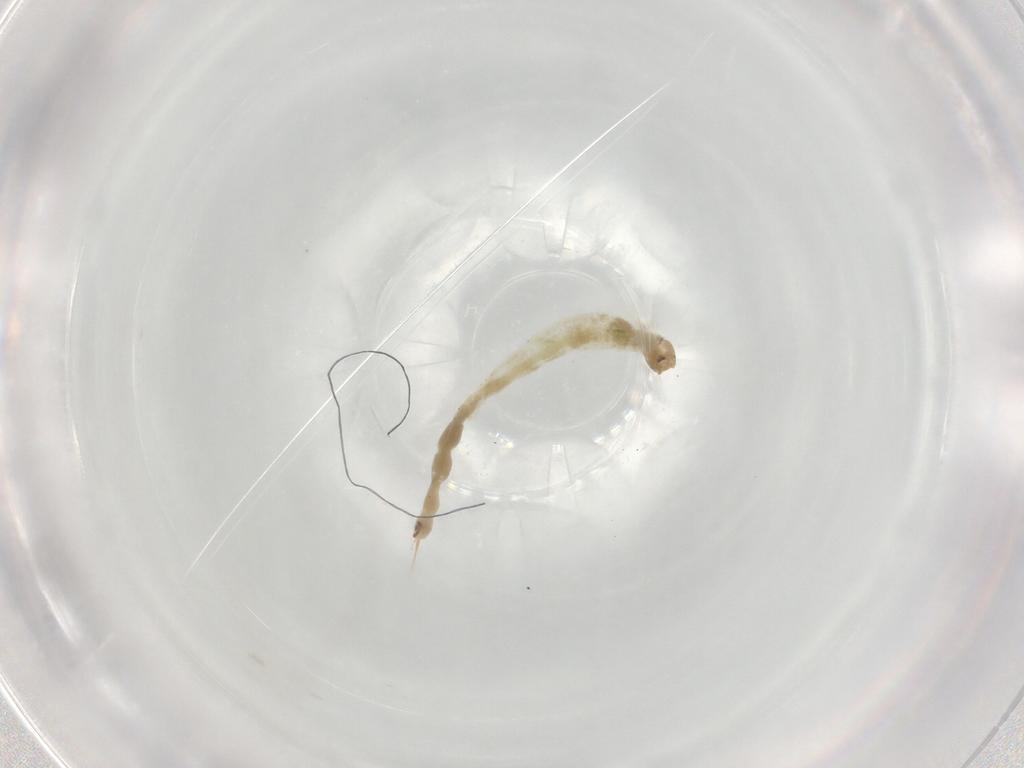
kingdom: Animalia
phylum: Arthropoda
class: Insecta
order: Diptera
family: Chironomidae
